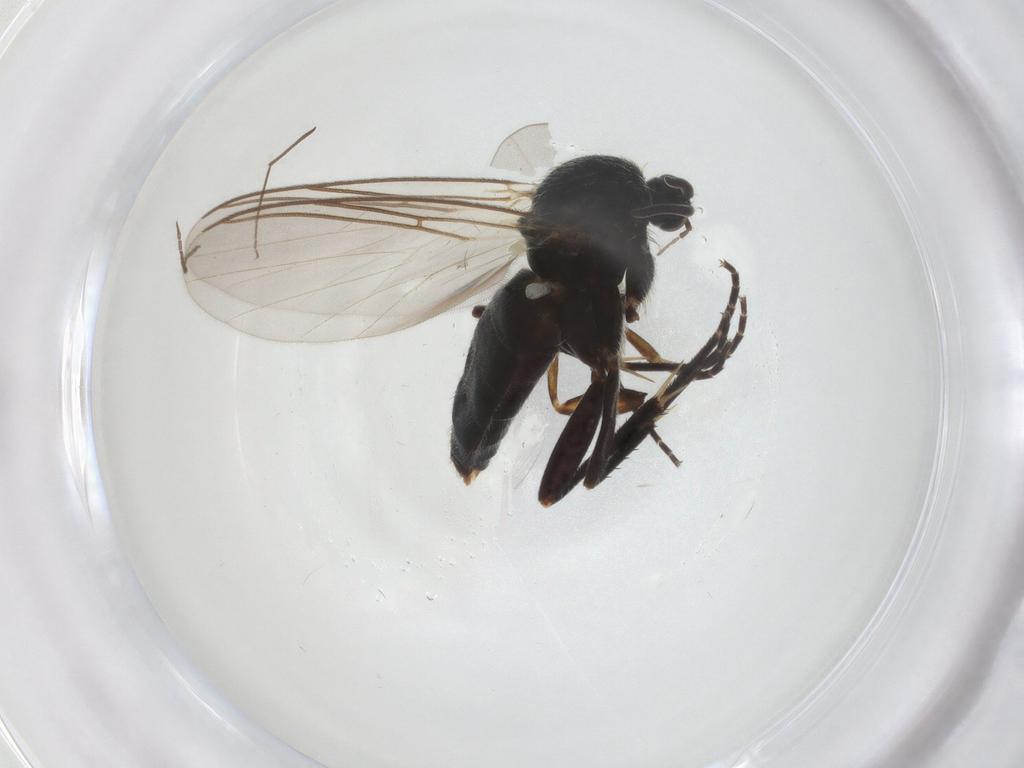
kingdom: Animalia
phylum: Arthropoda
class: Insecta
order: Diptera
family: Mycetophilidae
